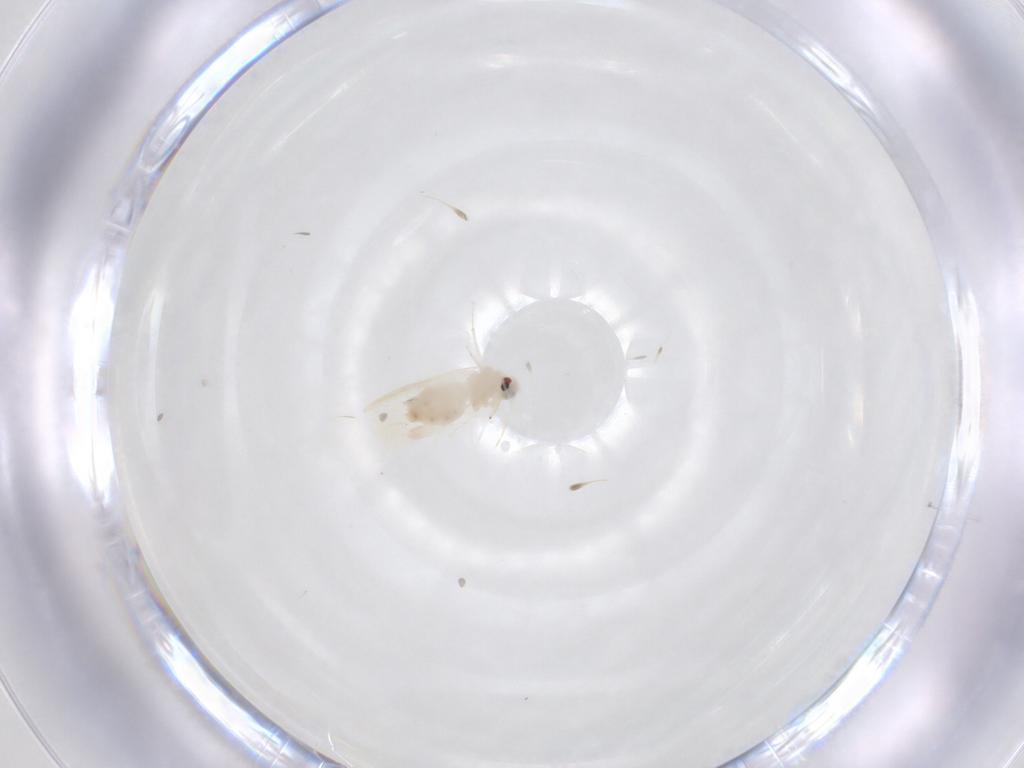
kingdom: Animalia
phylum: Arthropoda
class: Insecta
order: Hemiptera
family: Aleyrodidae
